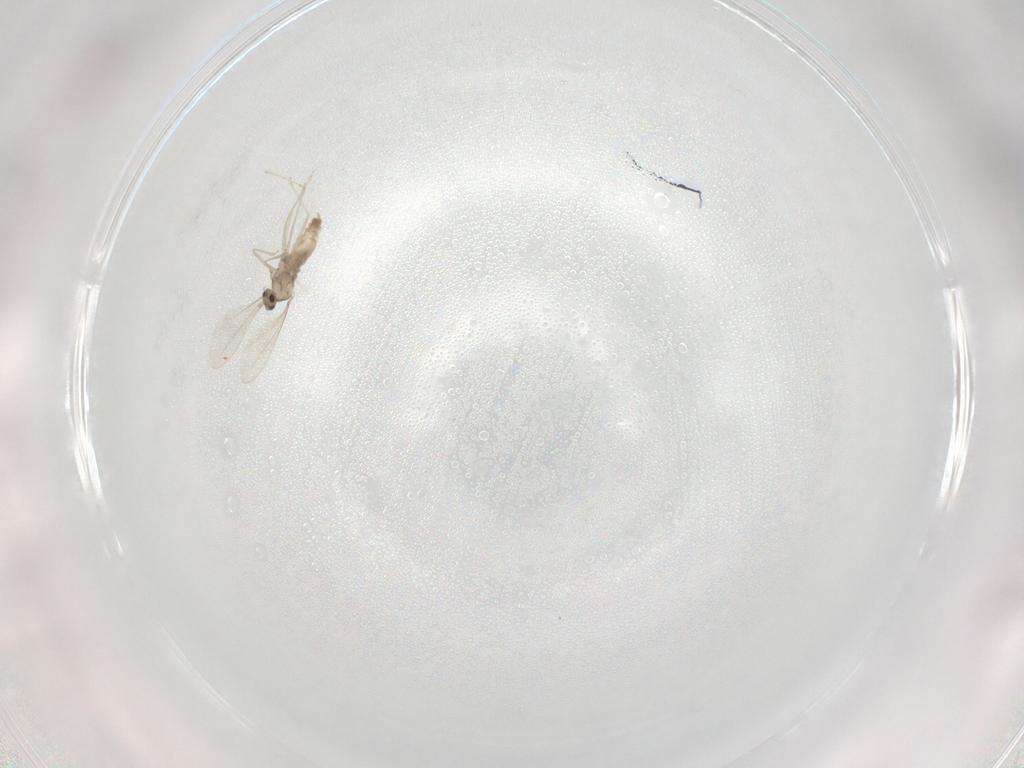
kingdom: Animalia
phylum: Arthropoda
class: Insecta
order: Diptera
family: Cecidomyiidae
